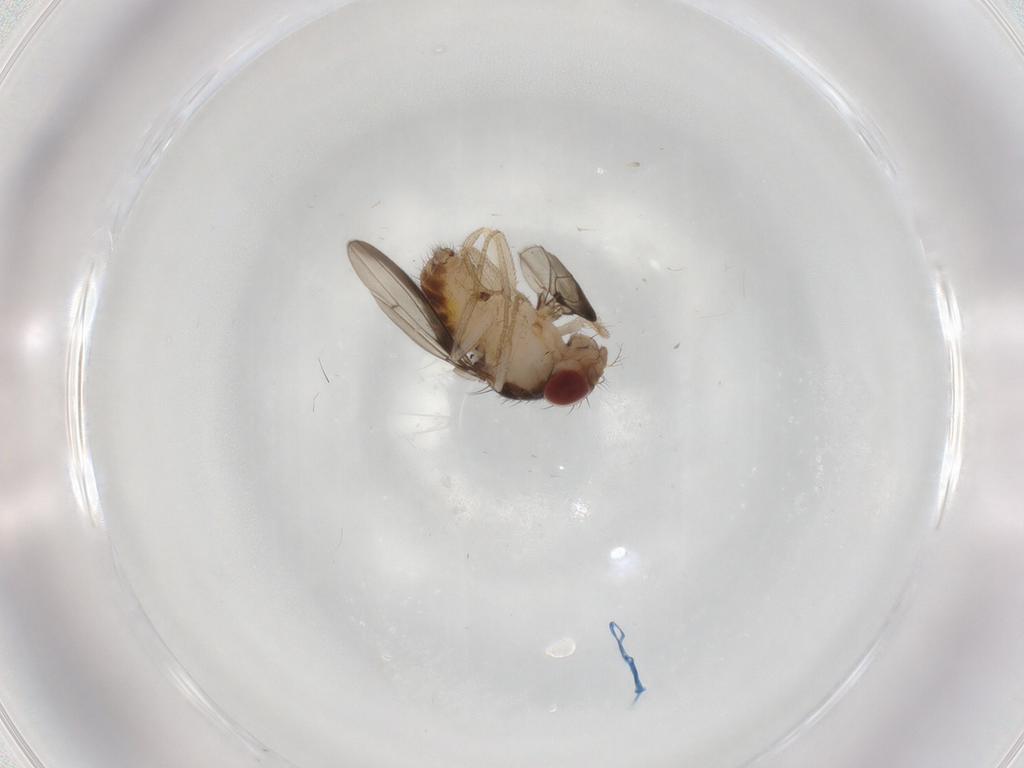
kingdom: Animalia
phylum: Arthropoda
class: Insecta
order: Diptera
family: Drosophilidae
